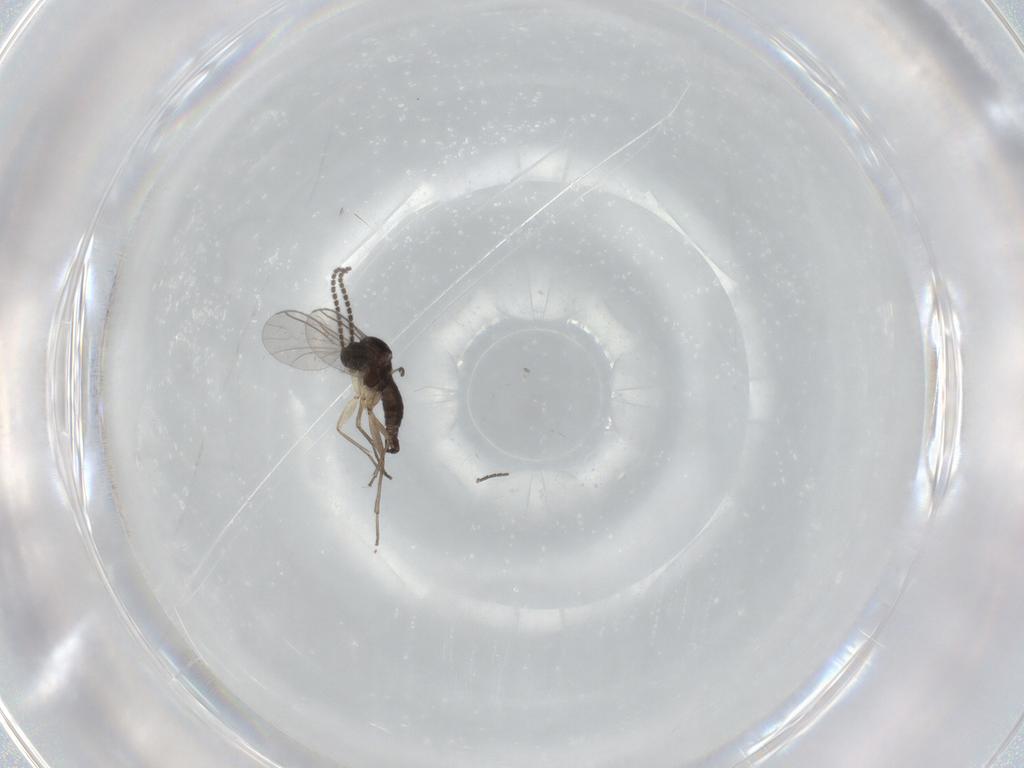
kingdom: Animalia
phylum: Arthropoda
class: Insecta
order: Diptera
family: Sciaridae
